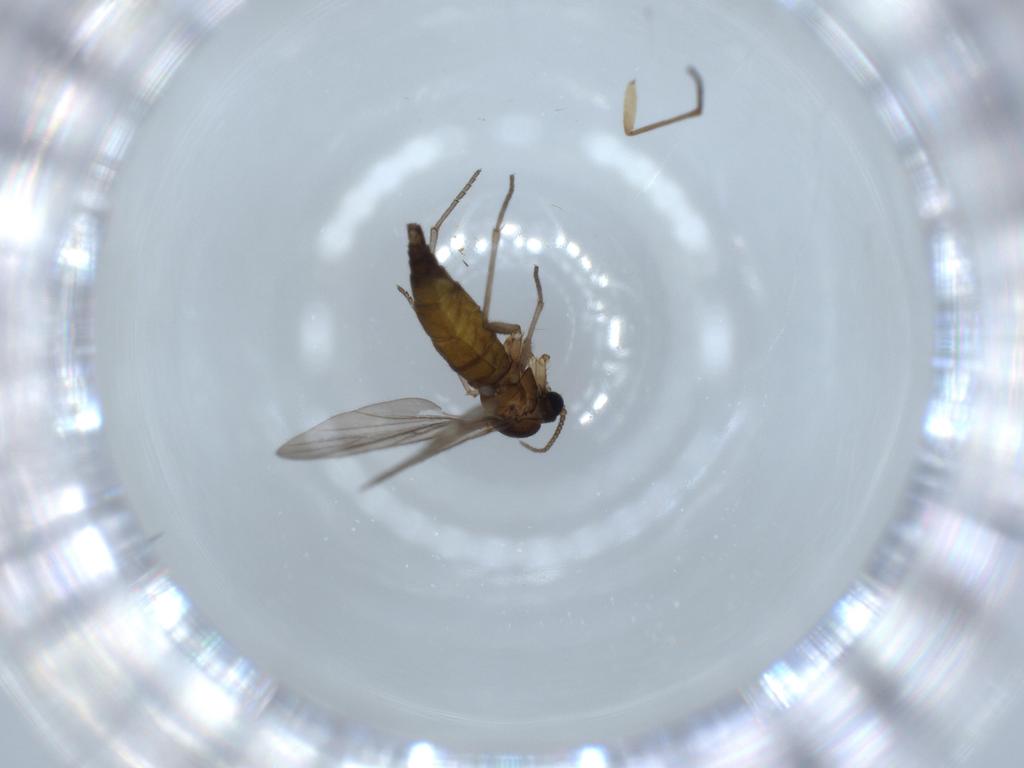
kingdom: Animalia
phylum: Arthropoda
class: Insecta
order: Diptera
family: Sciaridae
